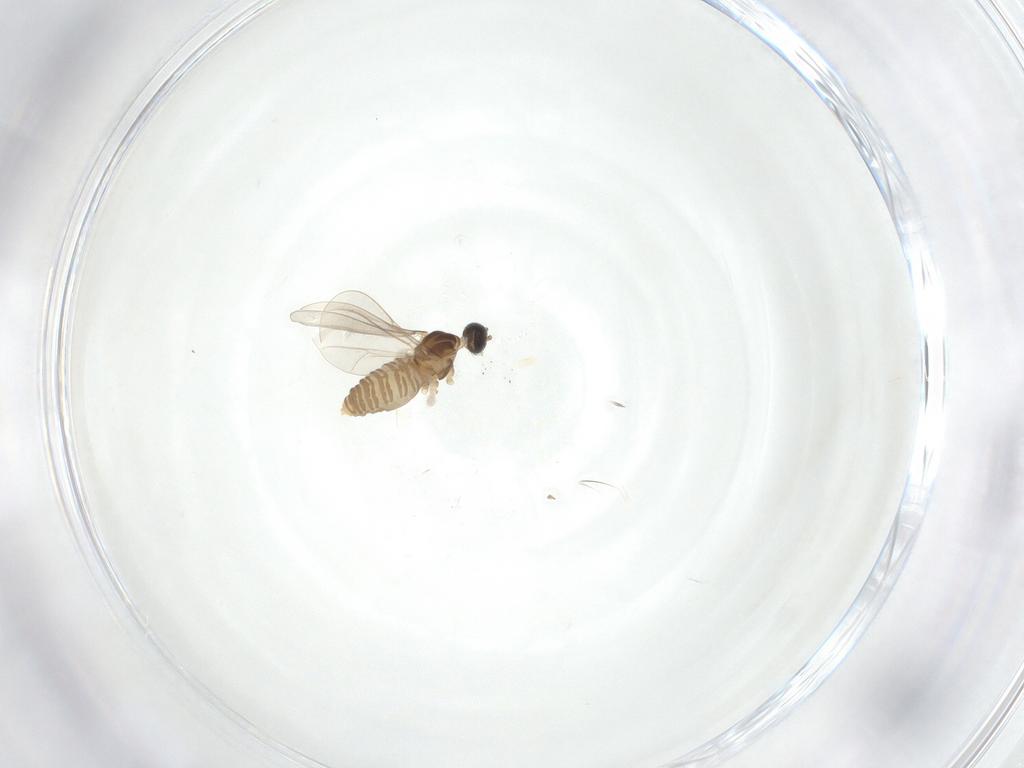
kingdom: Animalia
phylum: Arthropoda
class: Insecta
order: Diptera
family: Cecidomyiidae
